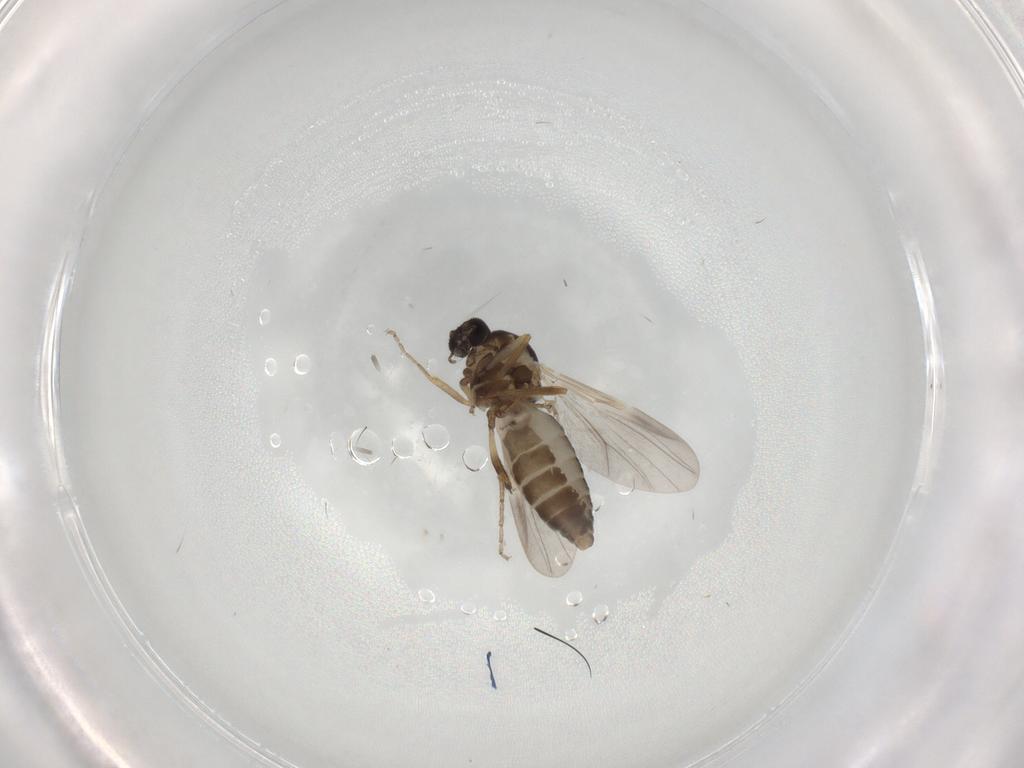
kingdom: Animalia
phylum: Arthropoda
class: Insecta
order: Diptera
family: Ceratopogonidae
